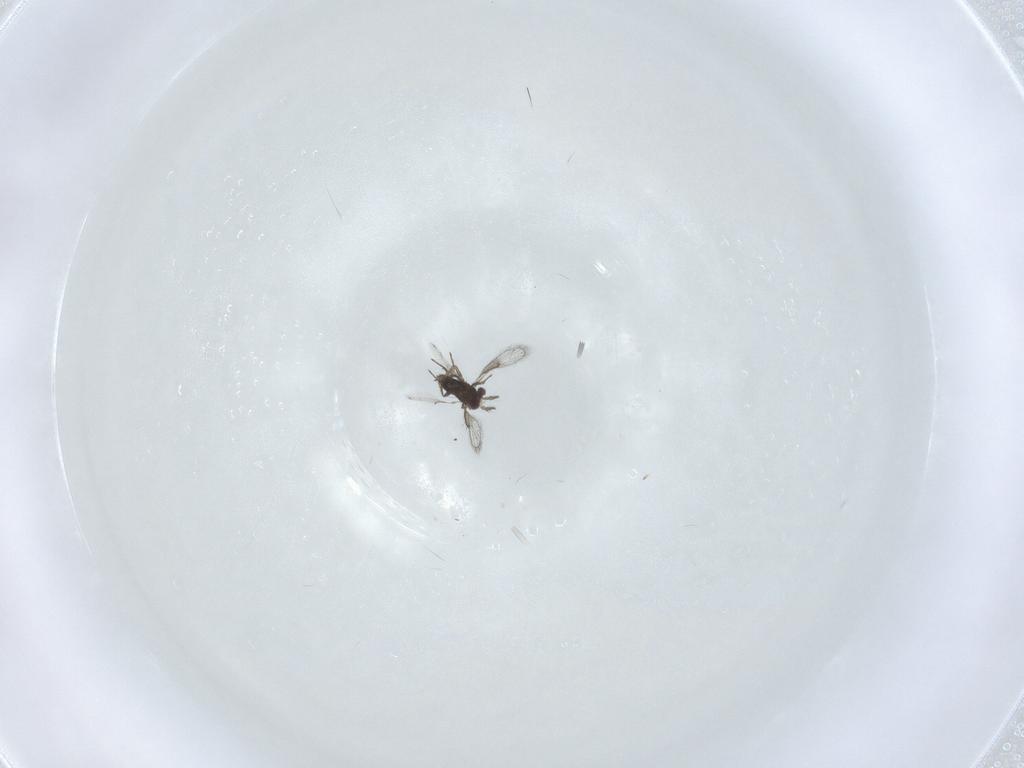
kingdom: Animalia
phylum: Arthropoda
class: Insecta
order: Hymenoptera
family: Trichogrammatidae
